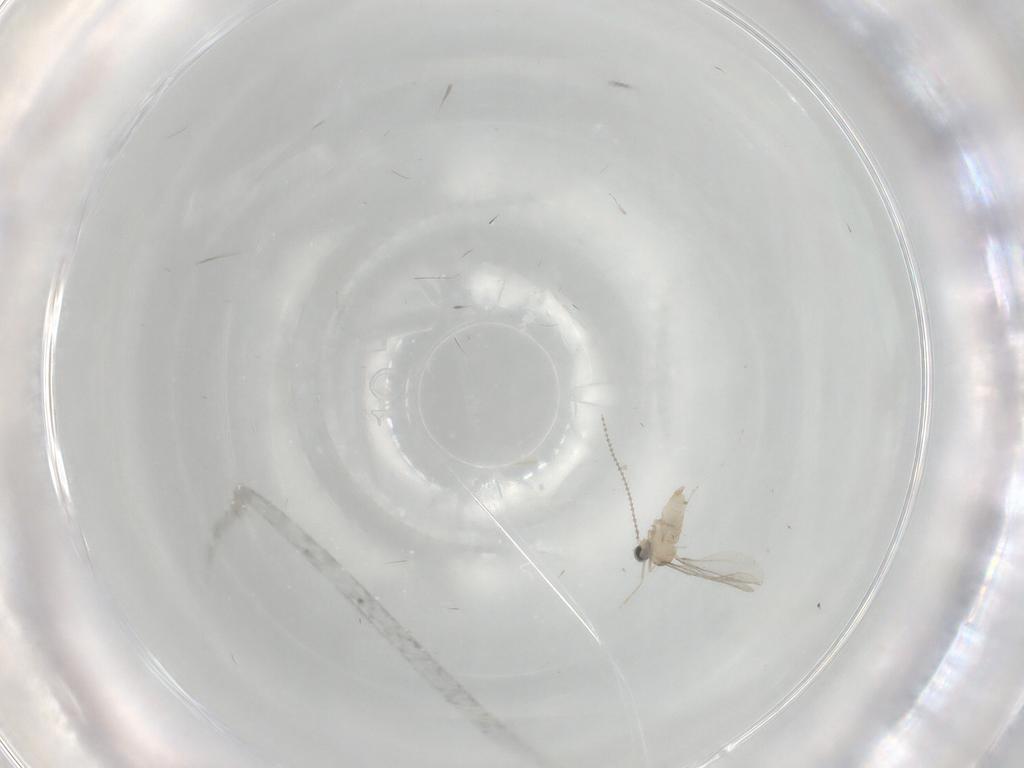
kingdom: Animalia
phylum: Arthropoda
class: Insecta
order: Diptera
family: Cecidomyiidae
